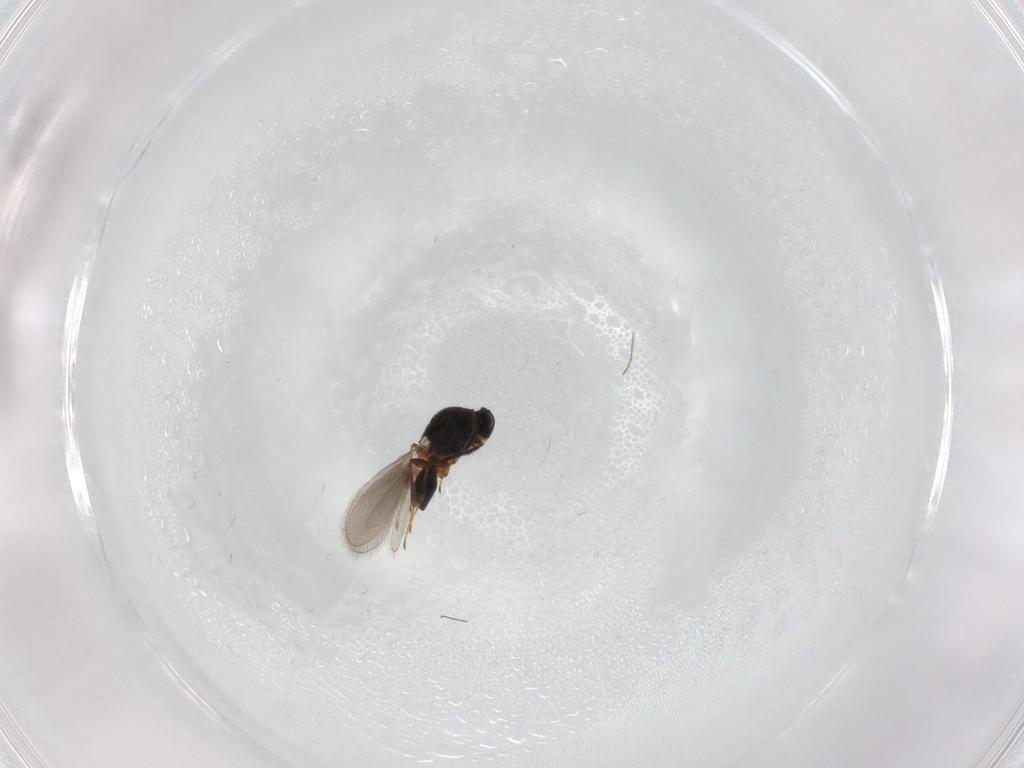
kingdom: Animalia
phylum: Arthropoda
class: Insecta
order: Hymenoptera
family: Platygastridae
